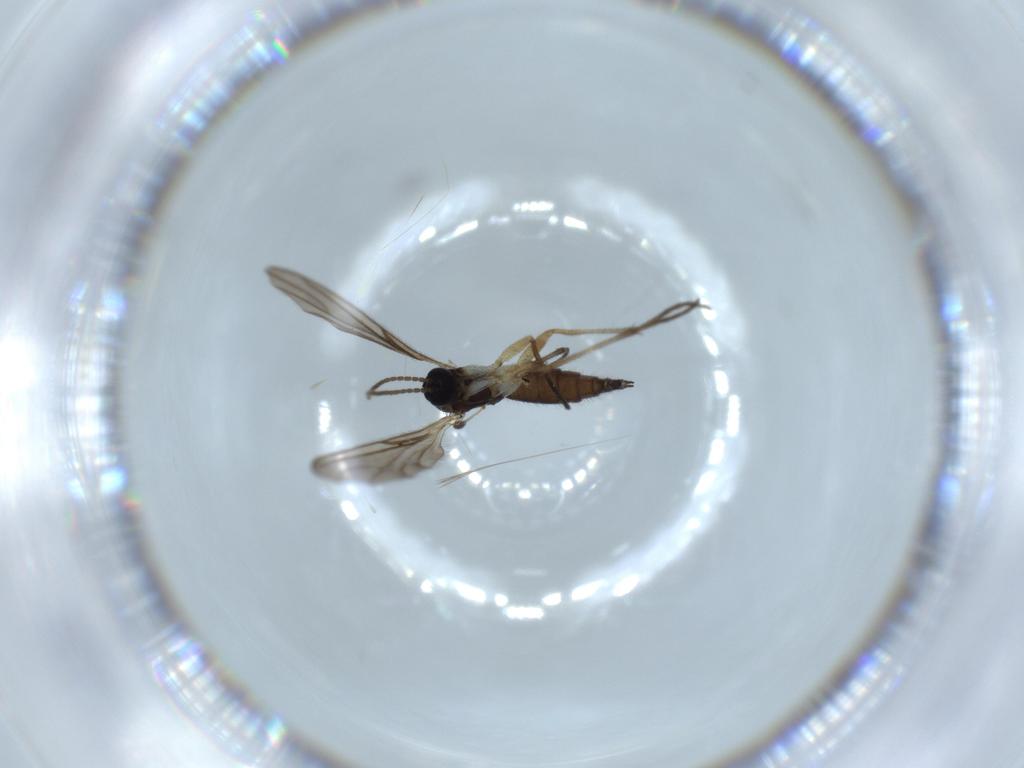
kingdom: Animalia
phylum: Arthropoda
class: Insecta
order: Diptera
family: Sciaridae
